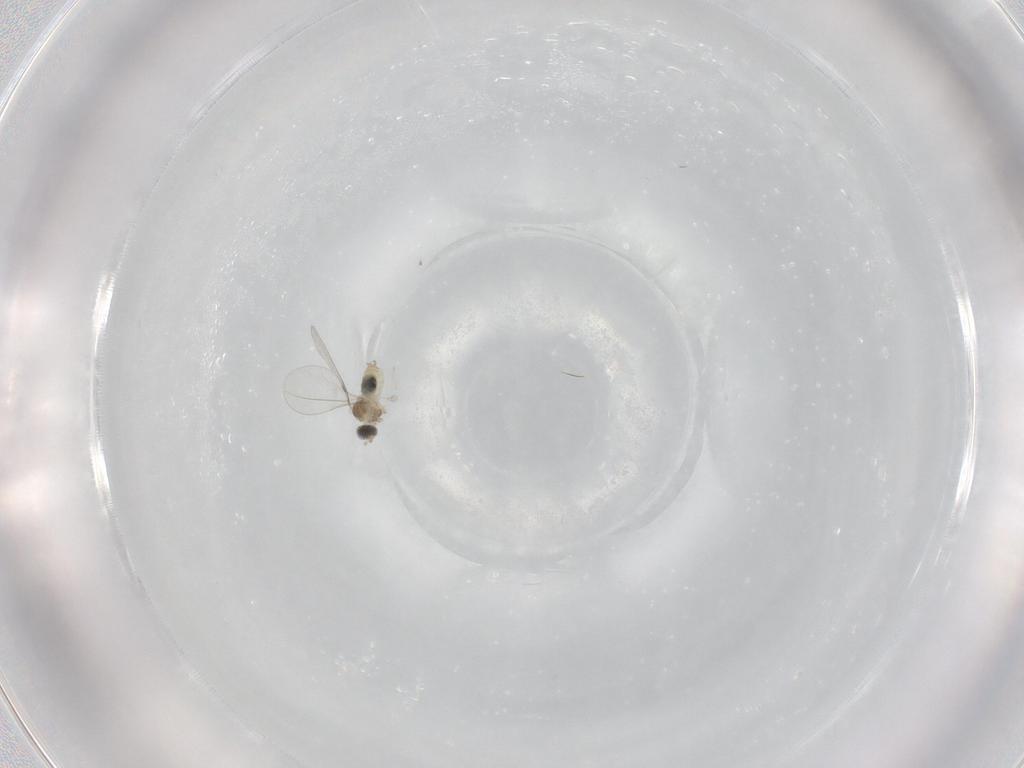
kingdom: Animalia
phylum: Arthropoda
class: Insecta
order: Diptera
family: Cecidomyiidae
